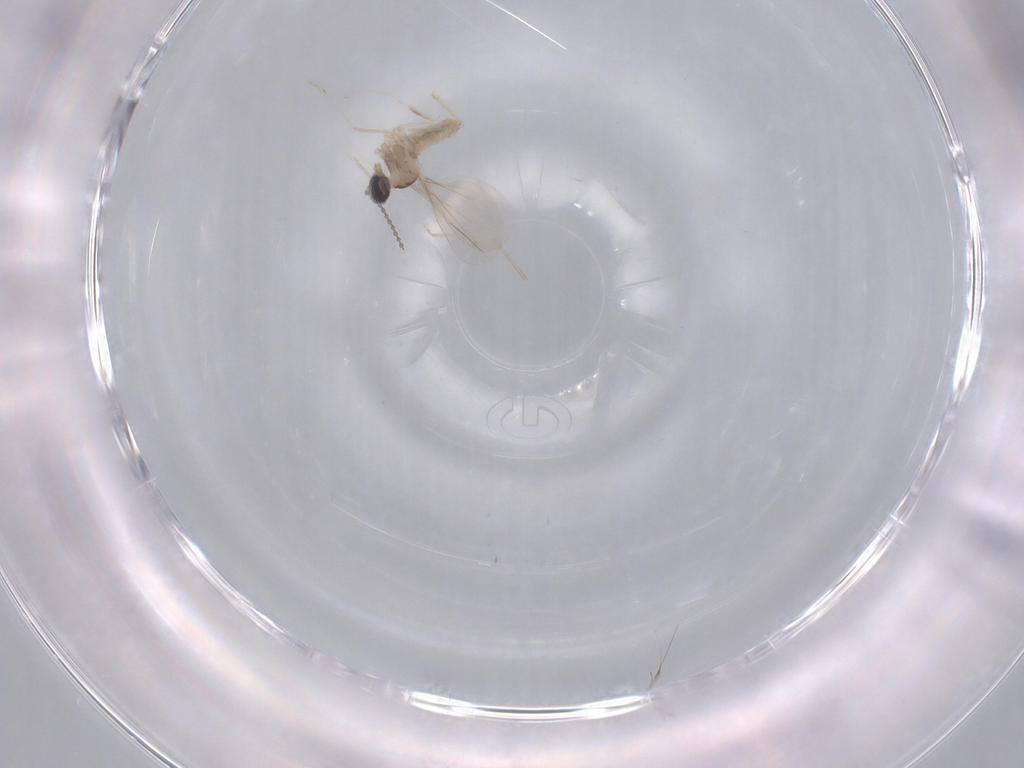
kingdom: Animalia
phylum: Arthropoda
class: Insecta
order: Diptera
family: Cecidomyiidae
